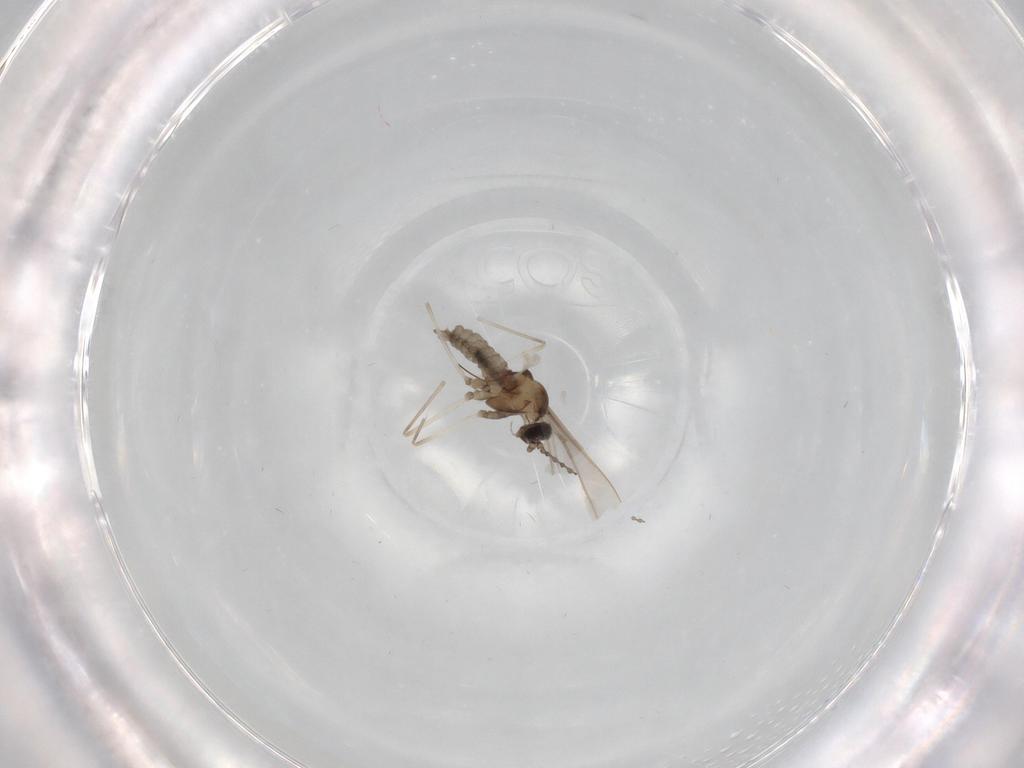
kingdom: Animalia
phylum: Arthropoda
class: Insecta
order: Diptera
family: Cecidomyiidae
